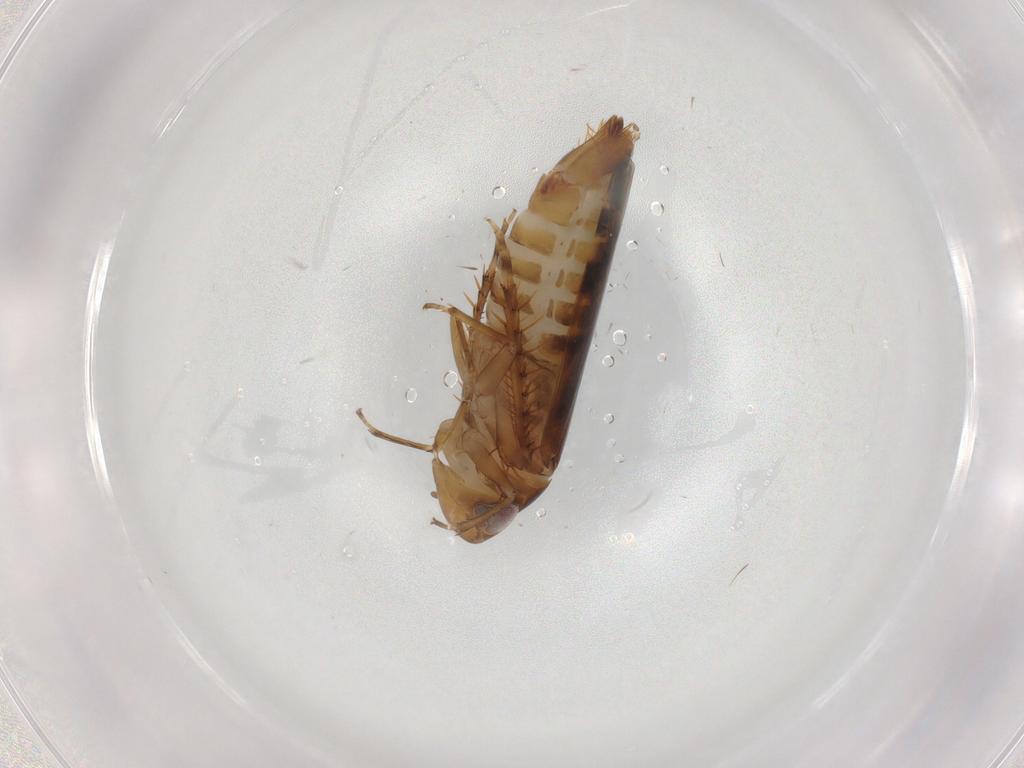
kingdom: Animalia
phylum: Arthropoda
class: Insecta
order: Hemiptera
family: Cicadellidae
